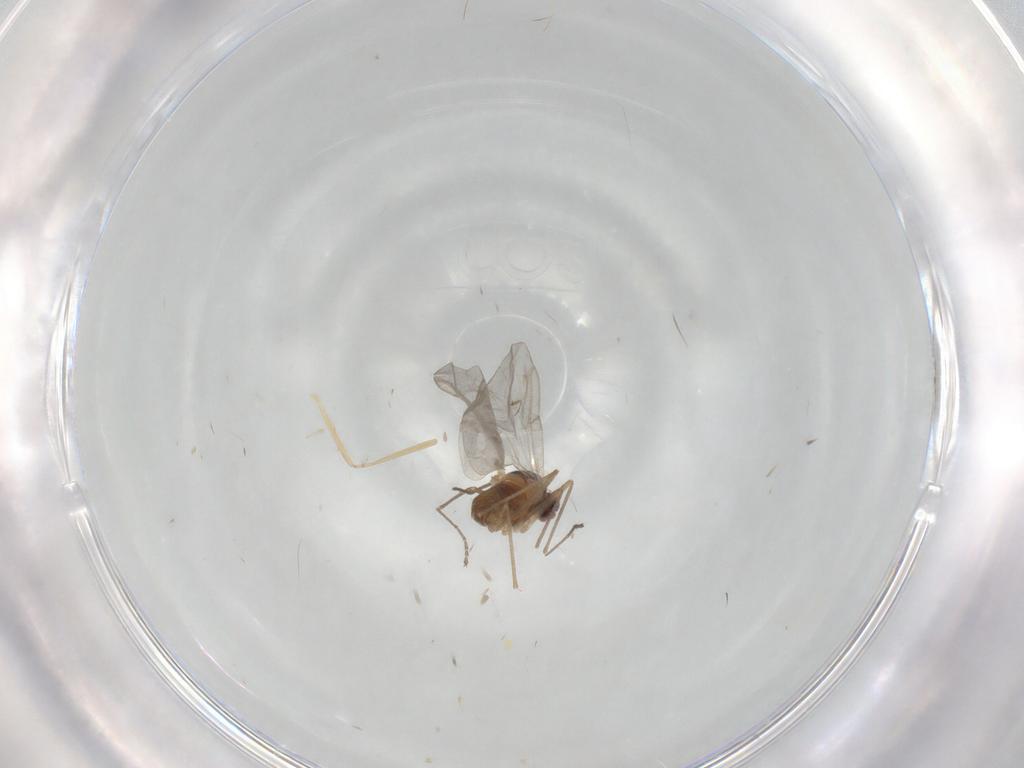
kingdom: Animalia
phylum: Arthropoda
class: Insecta
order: Diptera
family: Cecidomyiidae
